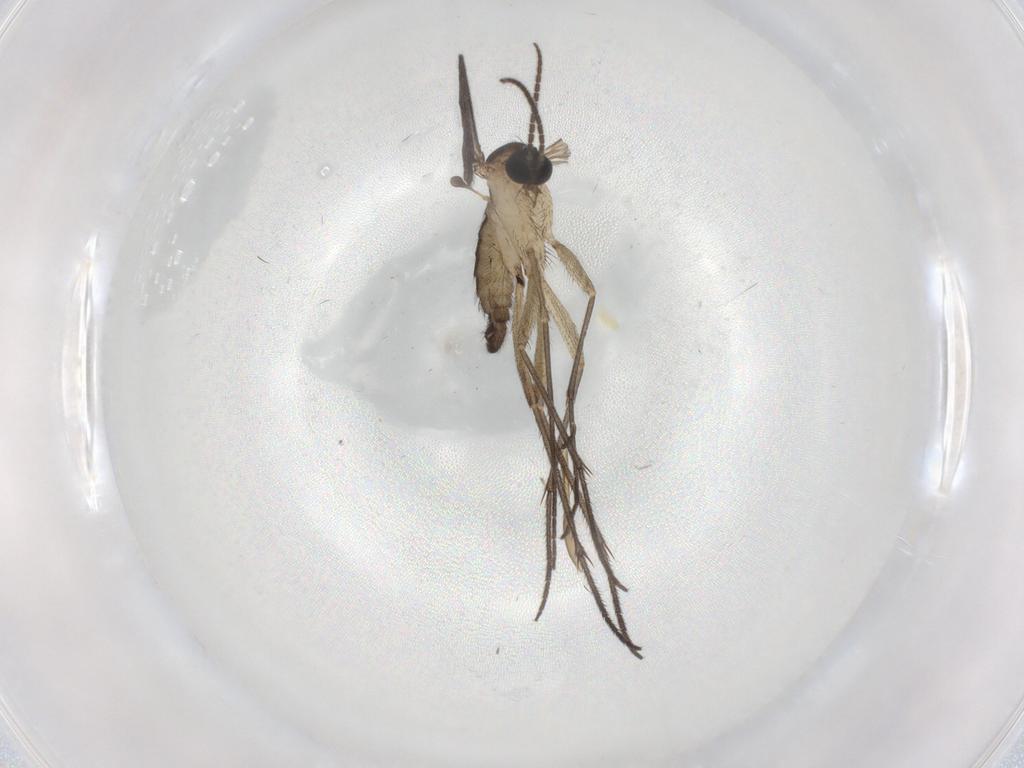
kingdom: Animalia
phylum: Arthropoda
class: Insecta
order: Diptera
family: Sciaridae
